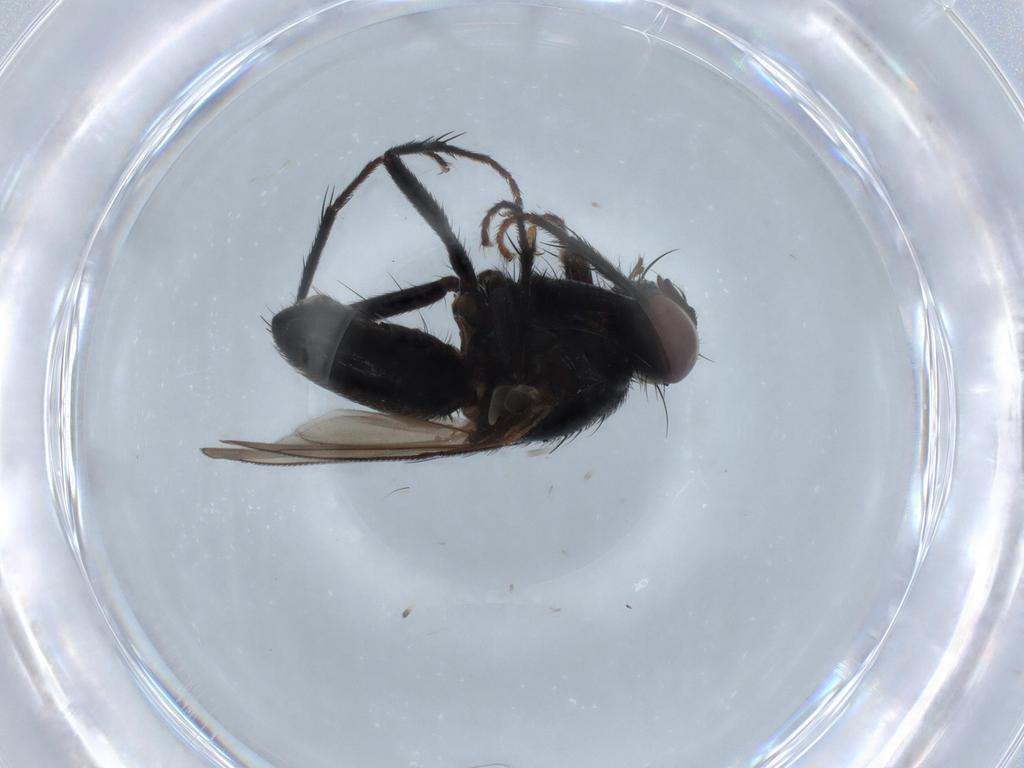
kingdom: Animalia
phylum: Arthropoda
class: Insecta
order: Diptera
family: Muscidae
